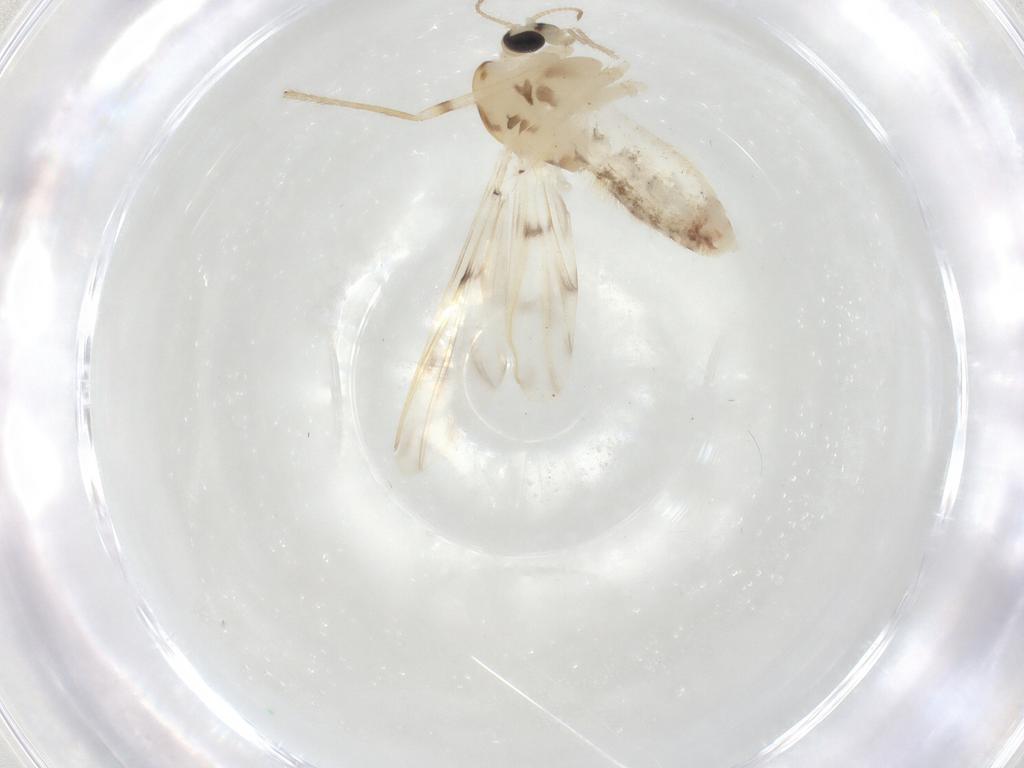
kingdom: Animalia
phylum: Arthropoda
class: Insecta
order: Diptera
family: Chironomidae
